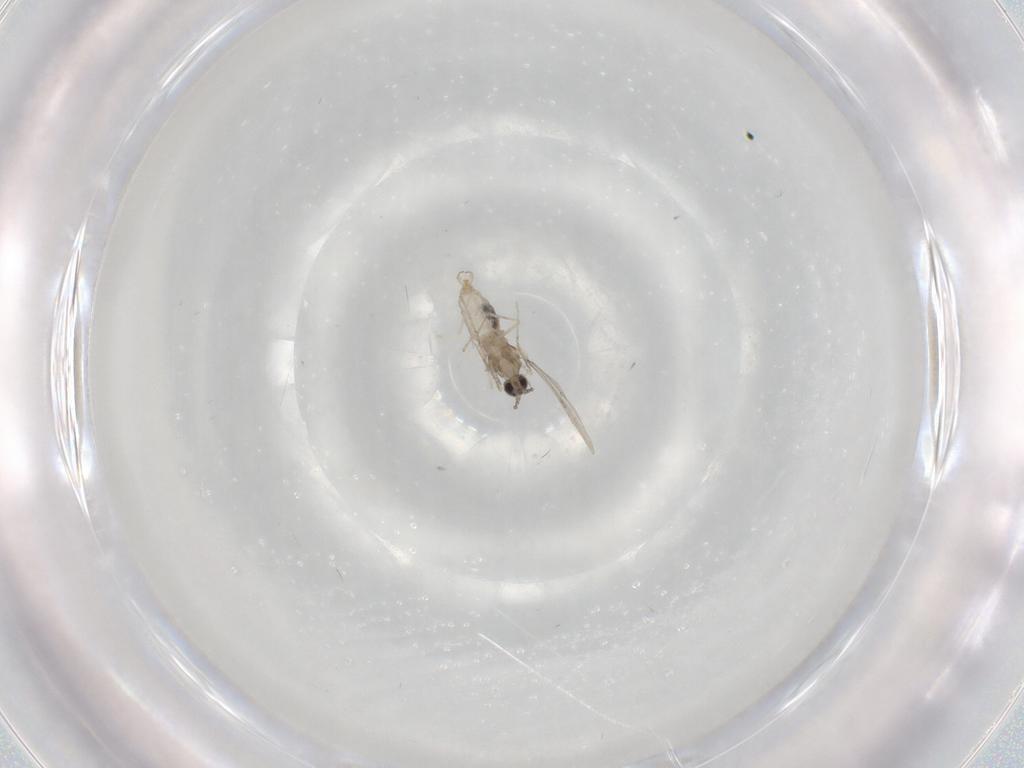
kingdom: Animalia
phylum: Arthropoda
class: Insecta
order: Diptera
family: Cecidomyiidae
